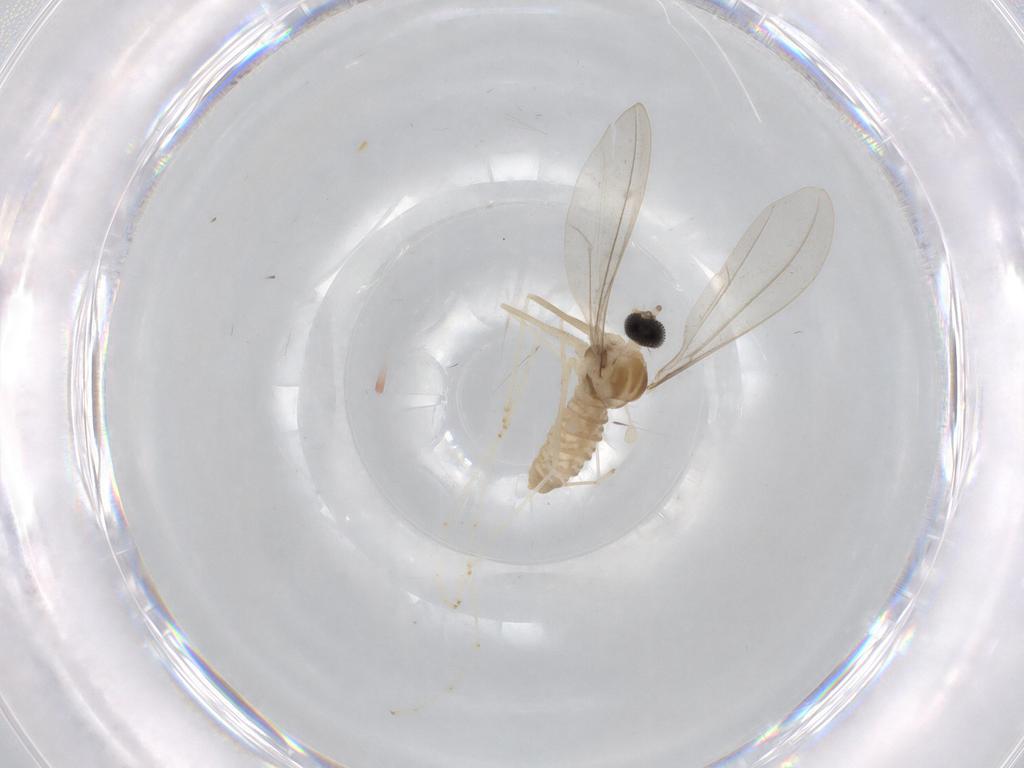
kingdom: Animalia
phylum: Arthropoda
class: Insecta
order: Diptera
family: Cecidomyiidae
